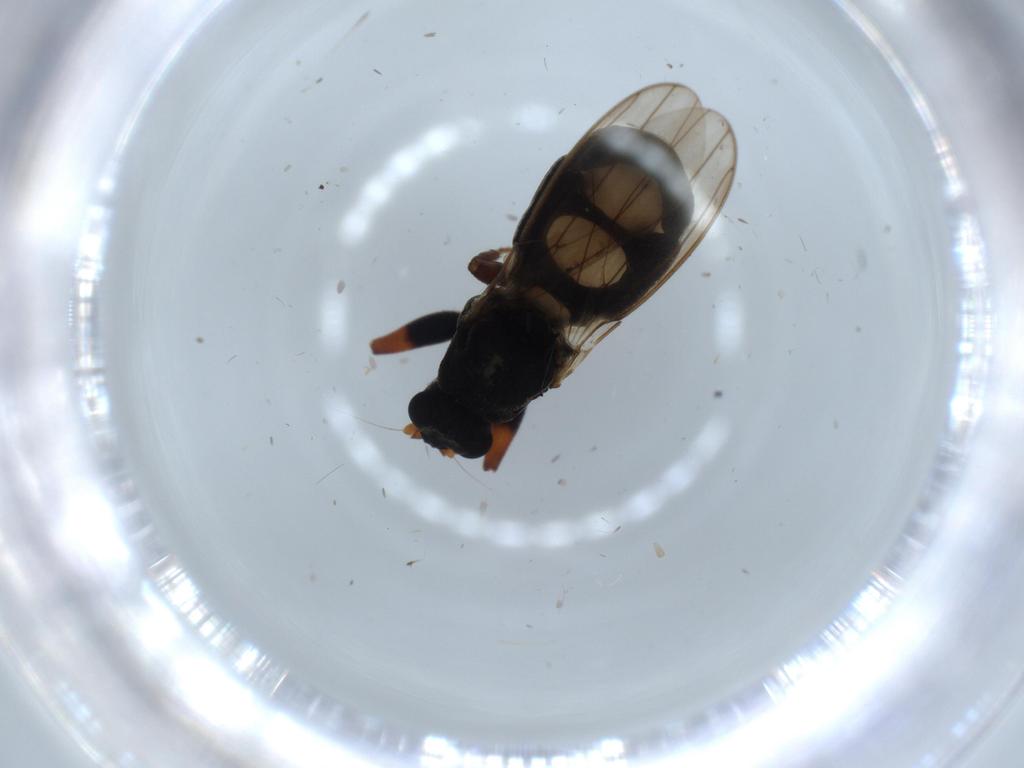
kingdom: Animalia
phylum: Arthropoda
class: Insecta
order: Diptera
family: Sphaeroceridae
